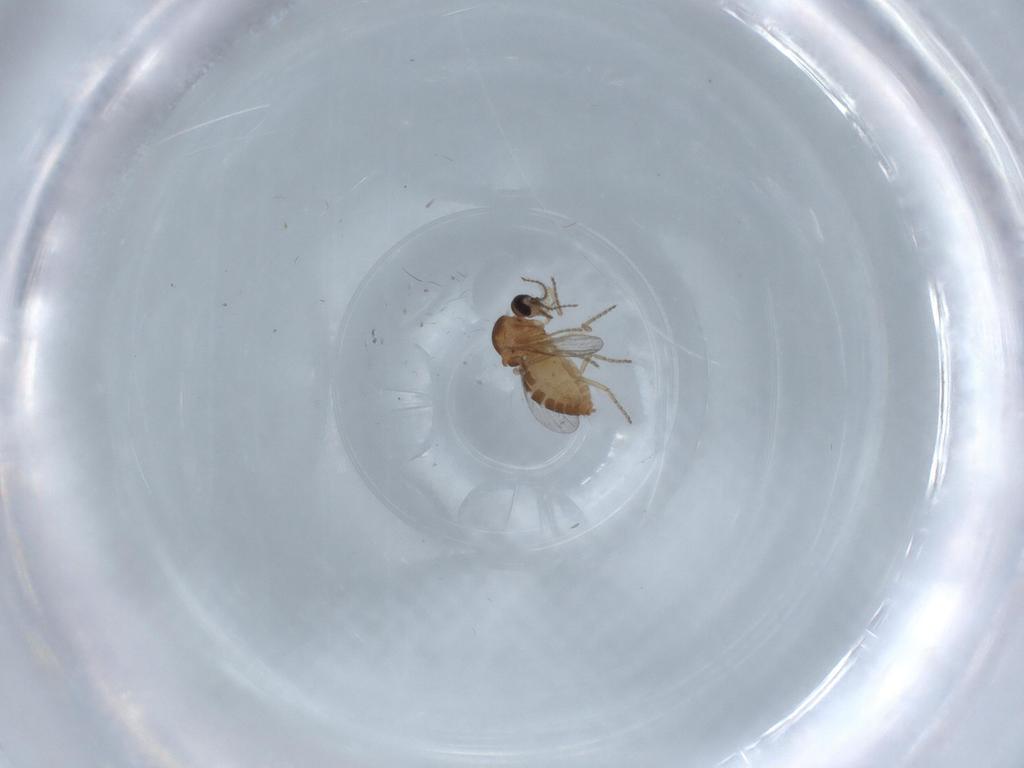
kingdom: Animalia
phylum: Arthropoda
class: Insecta
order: Diptera
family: Ceratopogonidae
